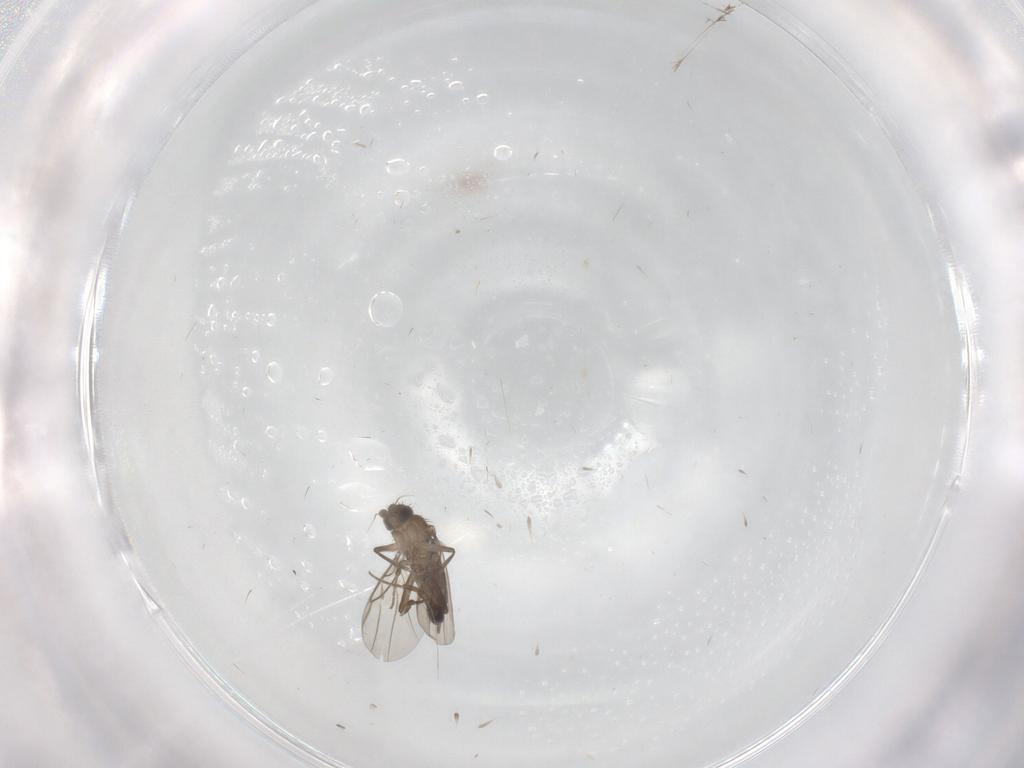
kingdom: Animalia
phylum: Arthropoda
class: Insecta
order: Diptera
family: Phoridae
